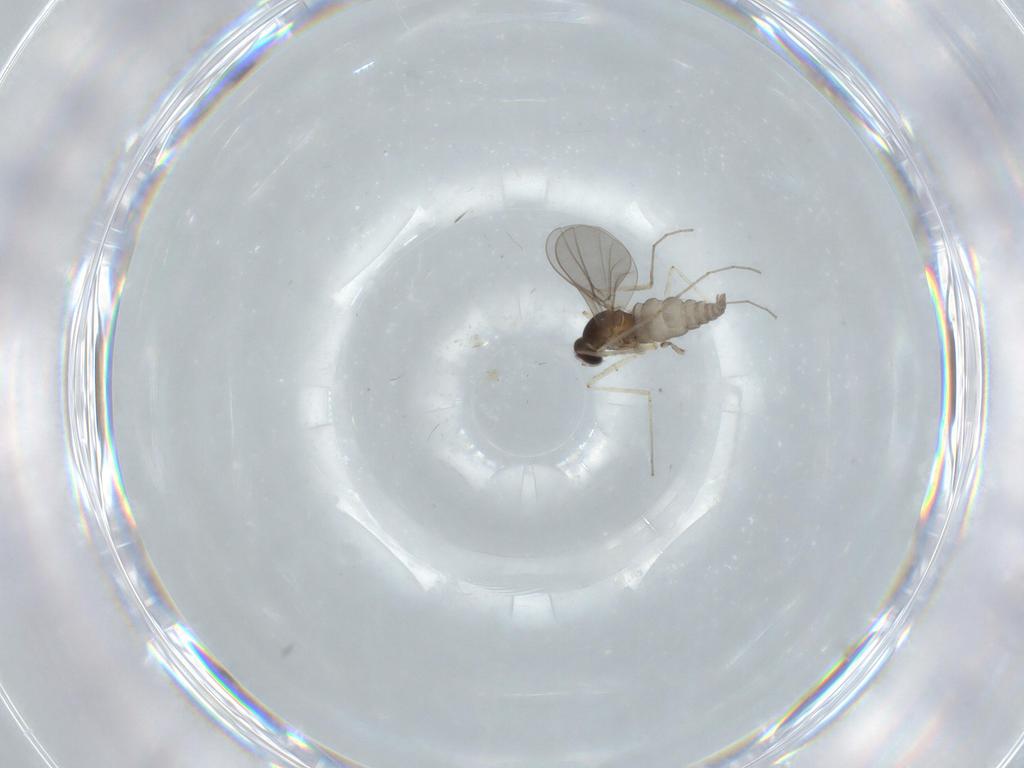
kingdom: Animalia
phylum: Arthropoda
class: Insecta
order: Diptera
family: Cecidomyiidae
